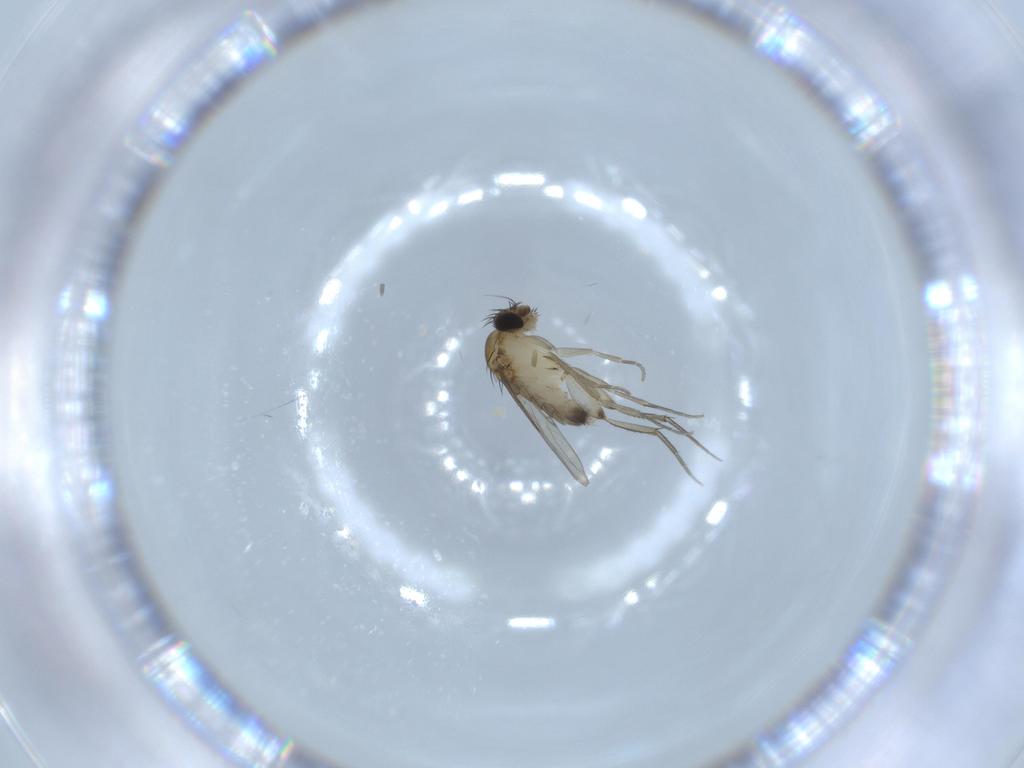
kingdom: Animalia
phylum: Arthropoda
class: Insecta
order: Diptera
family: Phoridae
